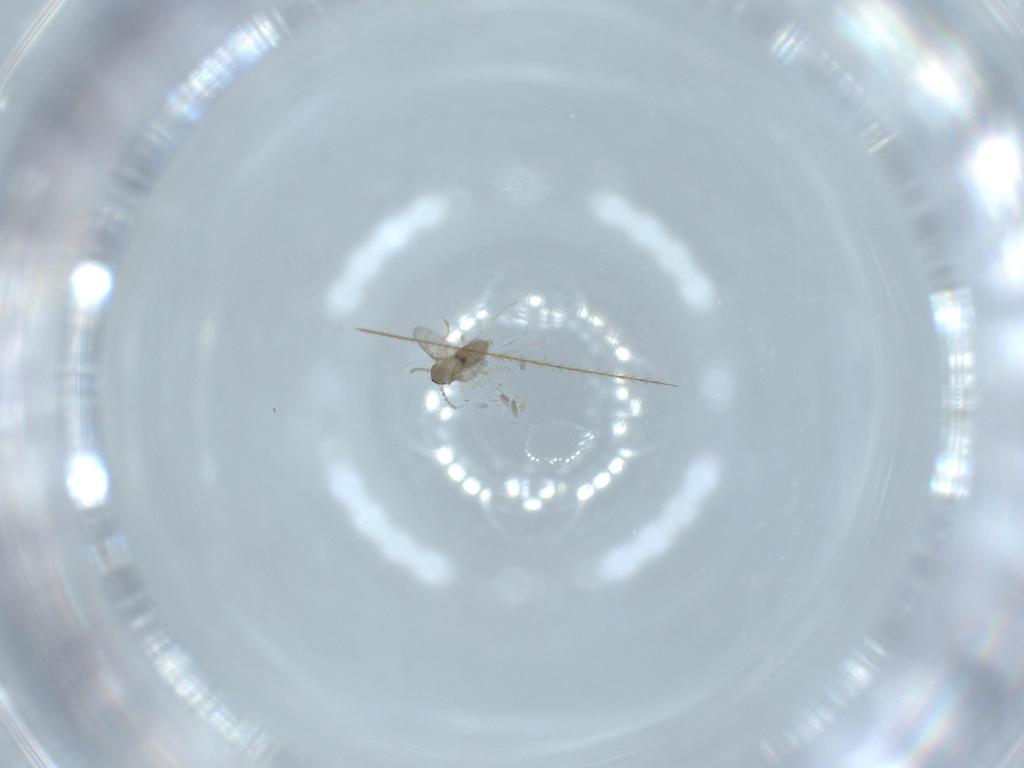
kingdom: Animalia
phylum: Arthropoda
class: Insecta
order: Diptera
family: Cecidomyiidae
